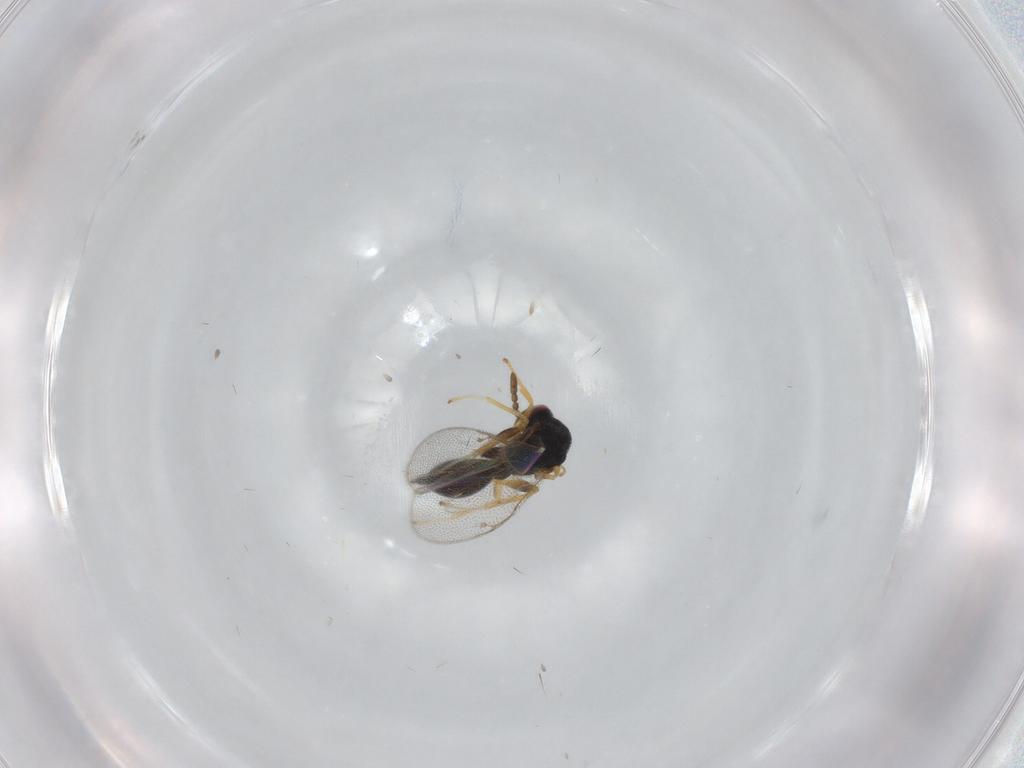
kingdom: Animalia
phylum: Arthropoda
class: Insecta
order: Hymenoptera
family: Eurytomidae
